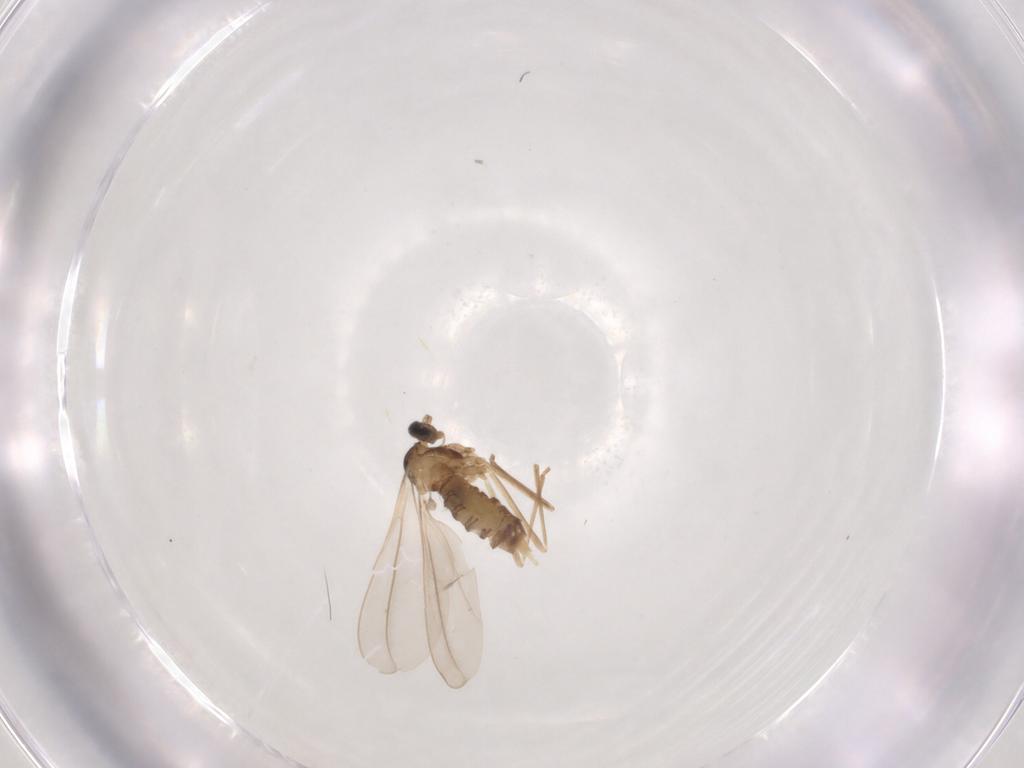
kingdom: Animalia
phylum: Arthropoda
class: Insecta
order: Diptera
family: Cecidomyiidae
